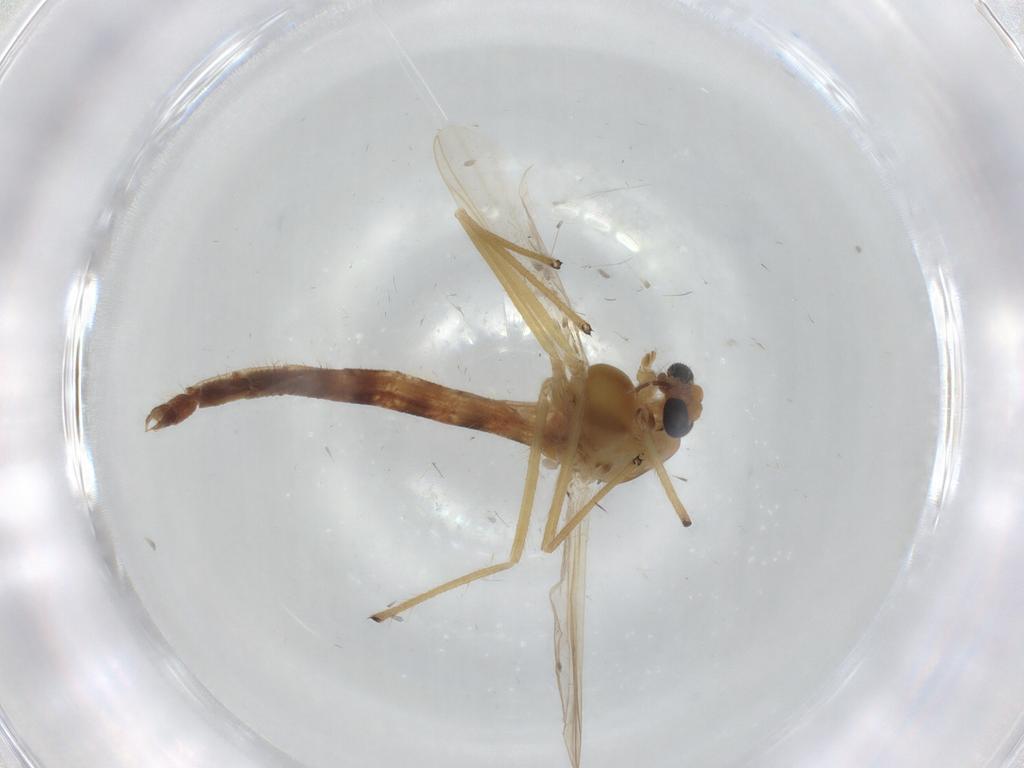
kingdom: Animalia
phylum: Arthropoda
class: Insecta
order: Diptera
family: Chironomidae
